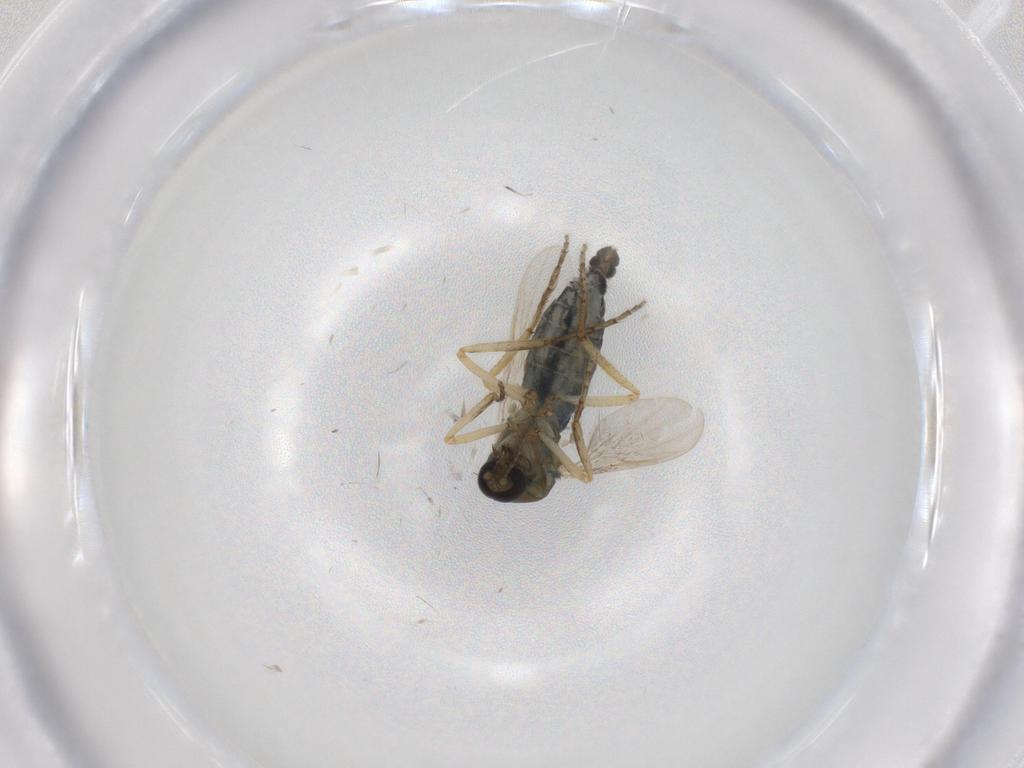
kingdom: Animalia
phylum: Arthropoda
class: Insecta
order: Diptera
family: Ceratopogonidae
